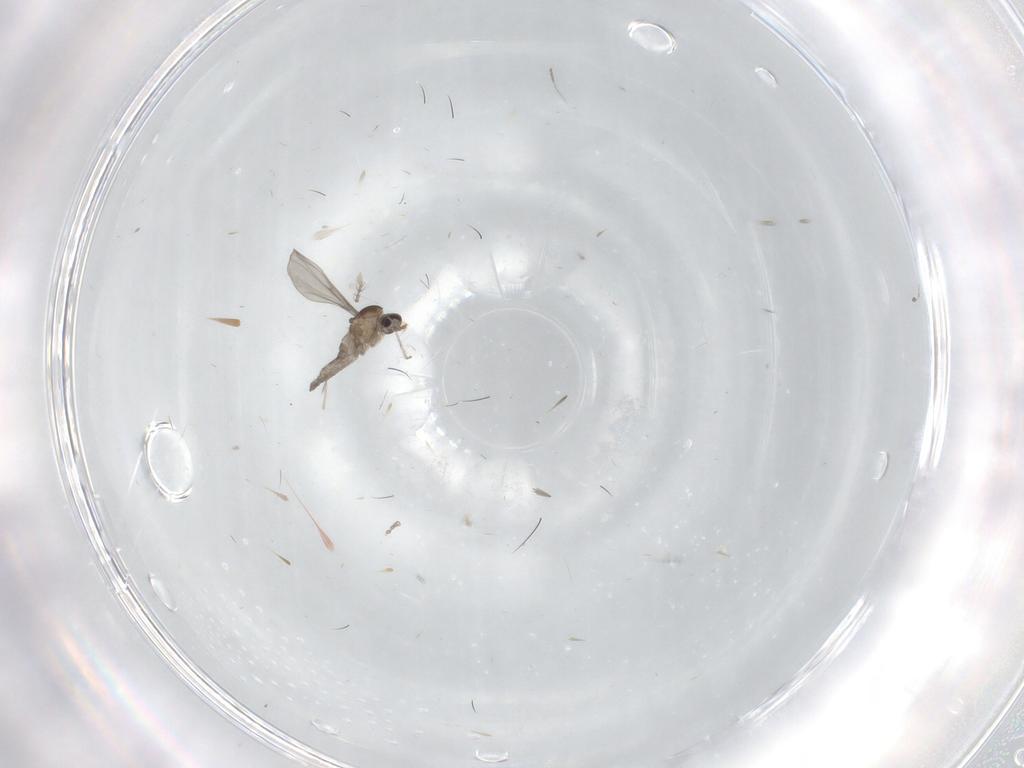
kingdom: Animalia
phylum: Arthropoda
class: Insecta
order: Diptera
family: Cecidomyiidae
